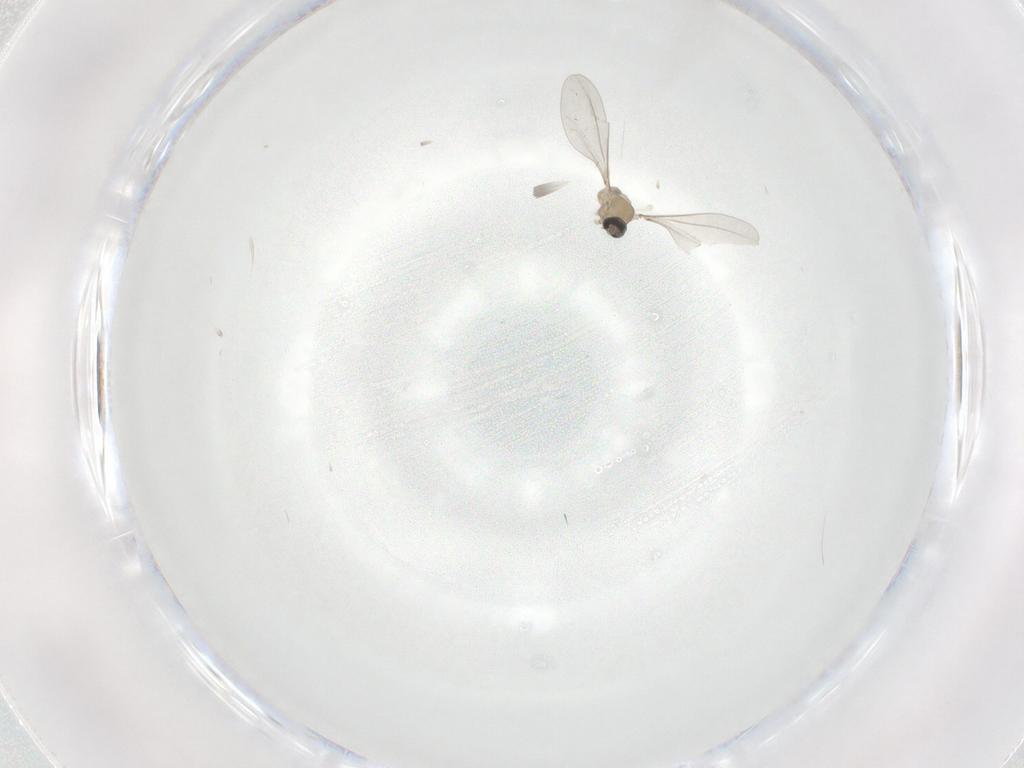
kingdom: Animalia
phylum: Arthropoda
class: Insecta
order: Diptera
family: Cecidomyiidae
